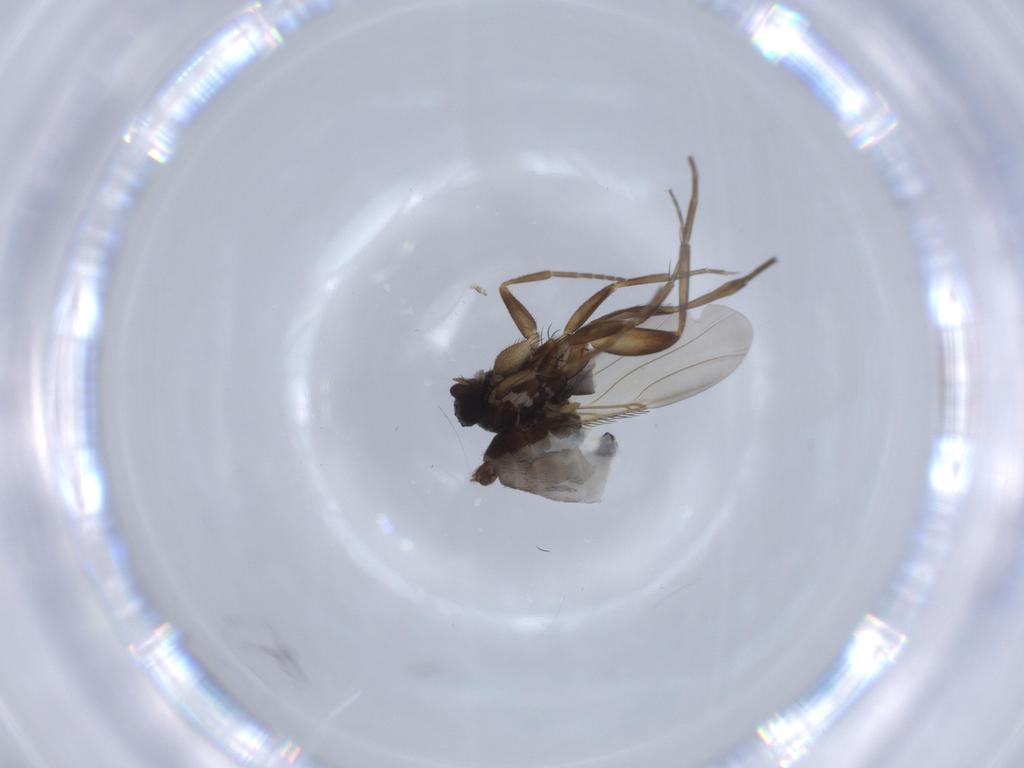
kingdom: Animalia
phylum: Arthropoda
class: Insecta
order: Diptera
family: Phoridae
